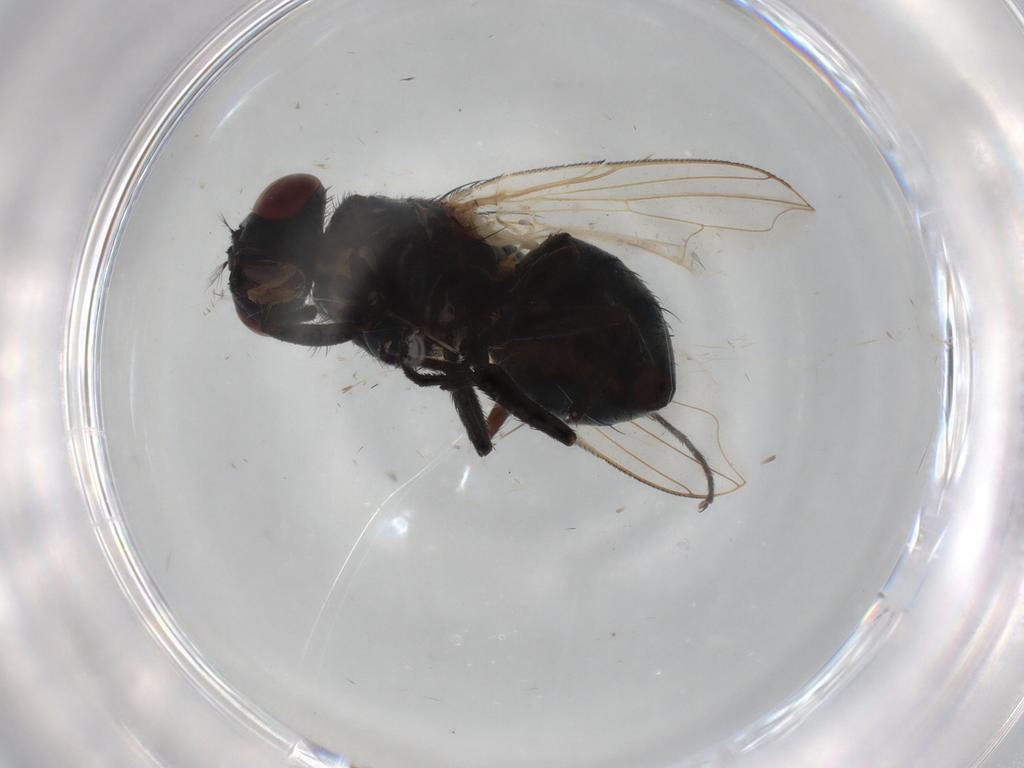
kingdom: Animalia
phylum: Arthropoda
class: Insecta
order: Diptera
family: Tachinidae
